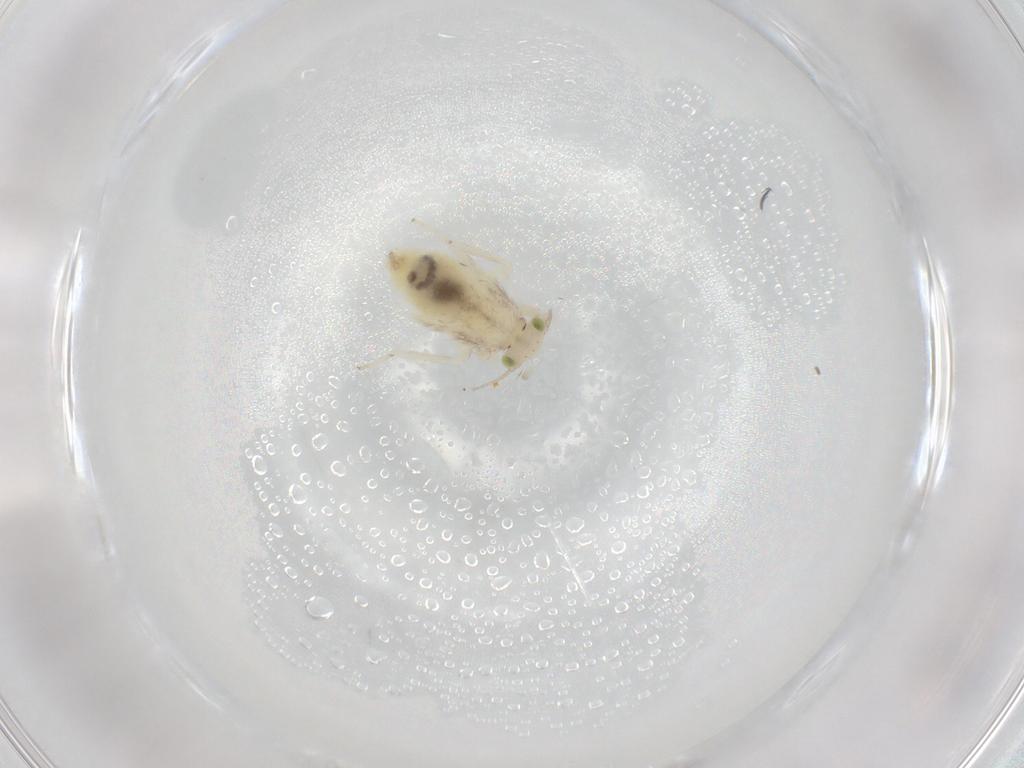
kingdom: Animalia
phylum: Arthropoda
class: Insecta
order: Psocodea
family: Lepidopsocidae
